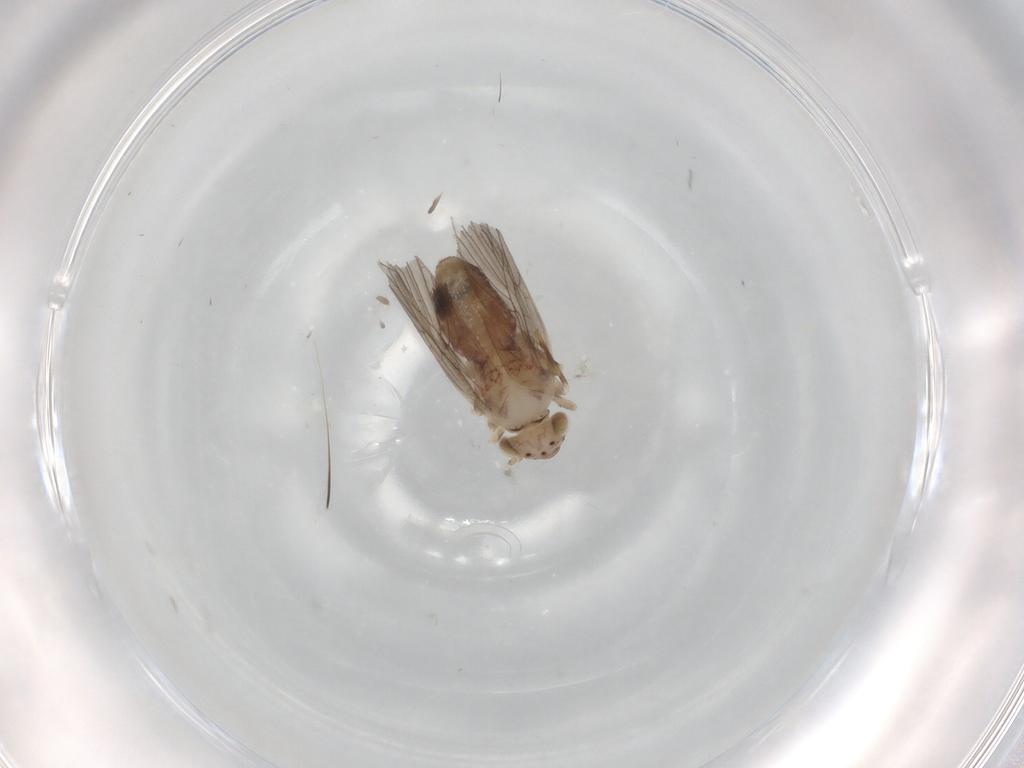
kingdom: Animalia
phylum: Arthropoda
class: Insecta
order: Psocodea
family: Lepidopsocidae
